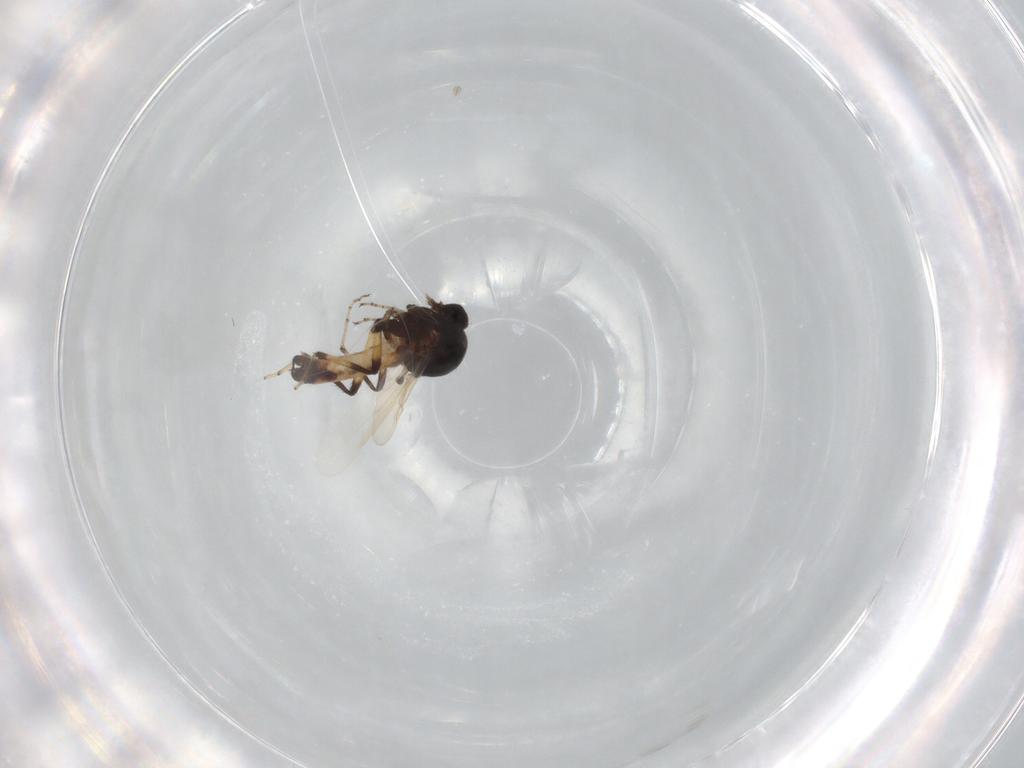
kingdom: Animalia
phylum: Arthropoda
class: Insecta
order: Diptera
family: Ceratopogonidae
